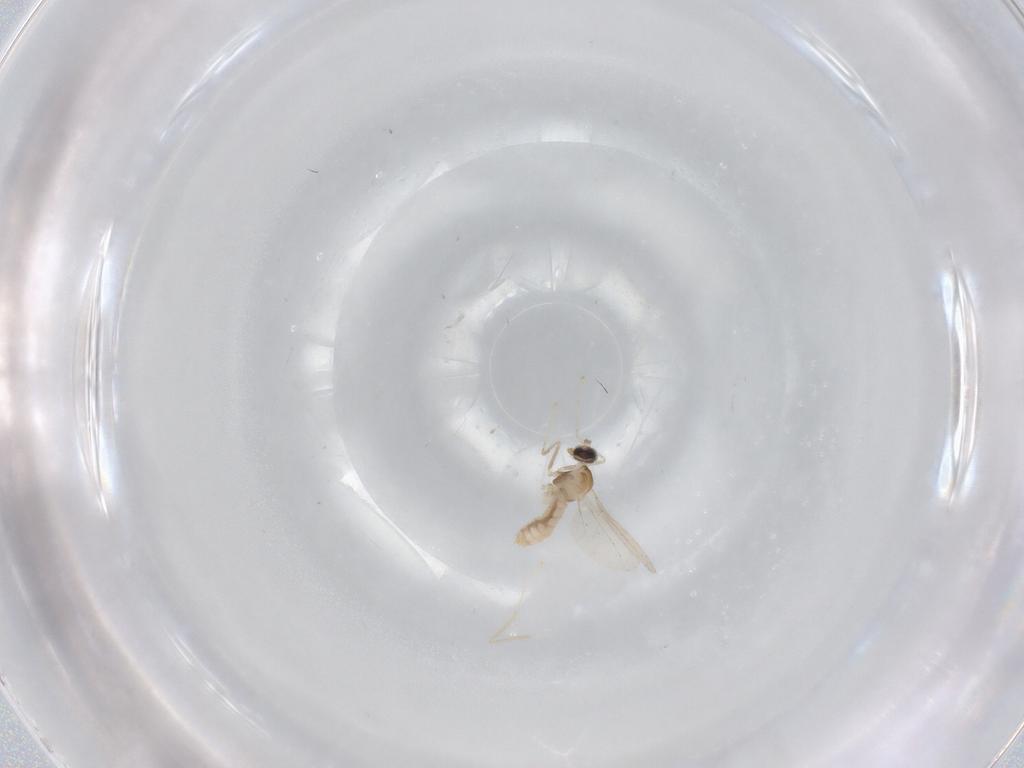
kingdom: Animalia
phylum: Arthropoda
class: Insecta
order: Diptera
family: Cecidomyiidae
